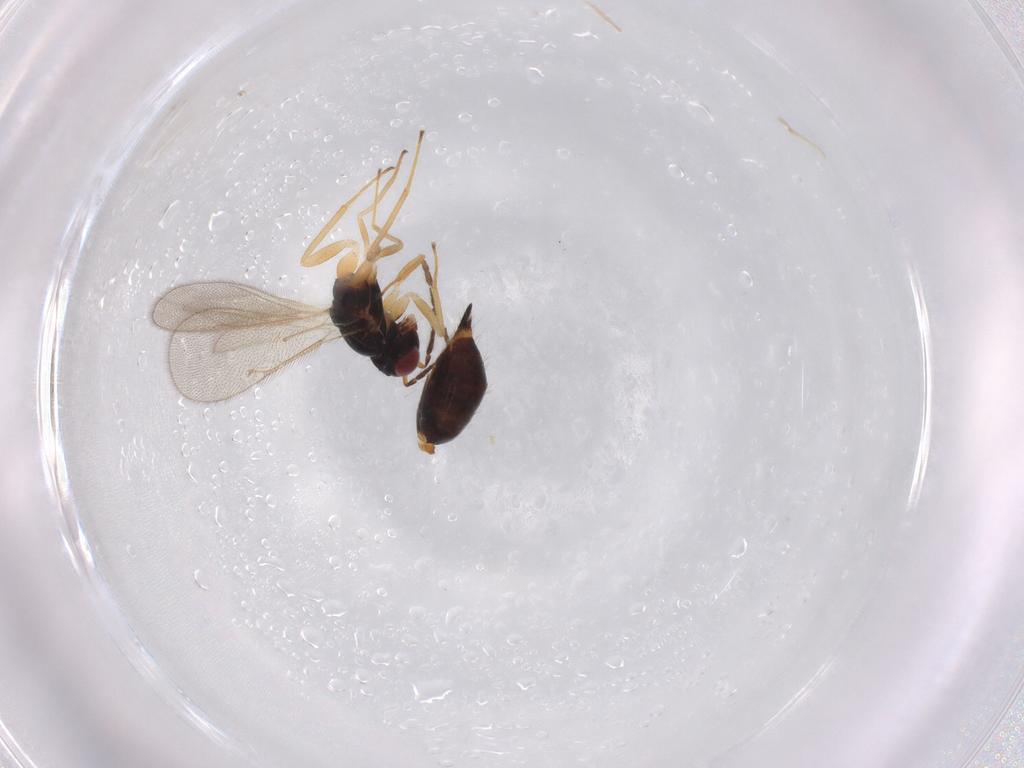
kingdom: Animalia
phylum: Arthropoda
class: Insecta
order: Hymenoptera
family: Eulophidae
